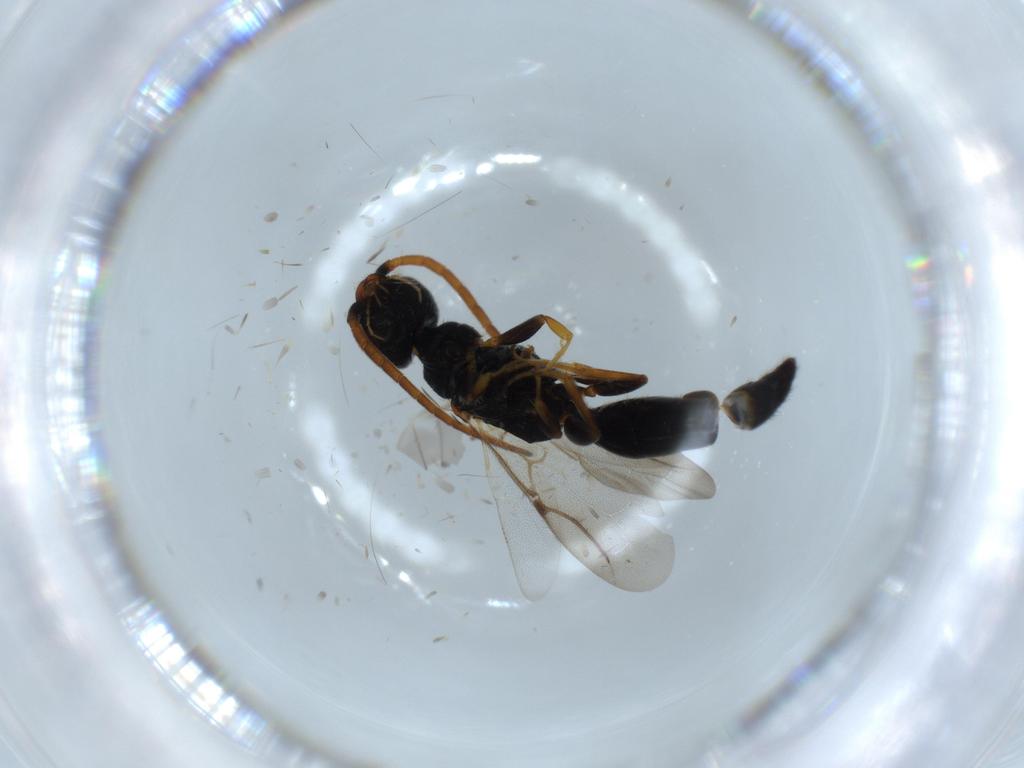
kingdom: Animalia
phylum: Arthropoda
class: Insecta
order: Hymenoptera
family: Bethylidae
